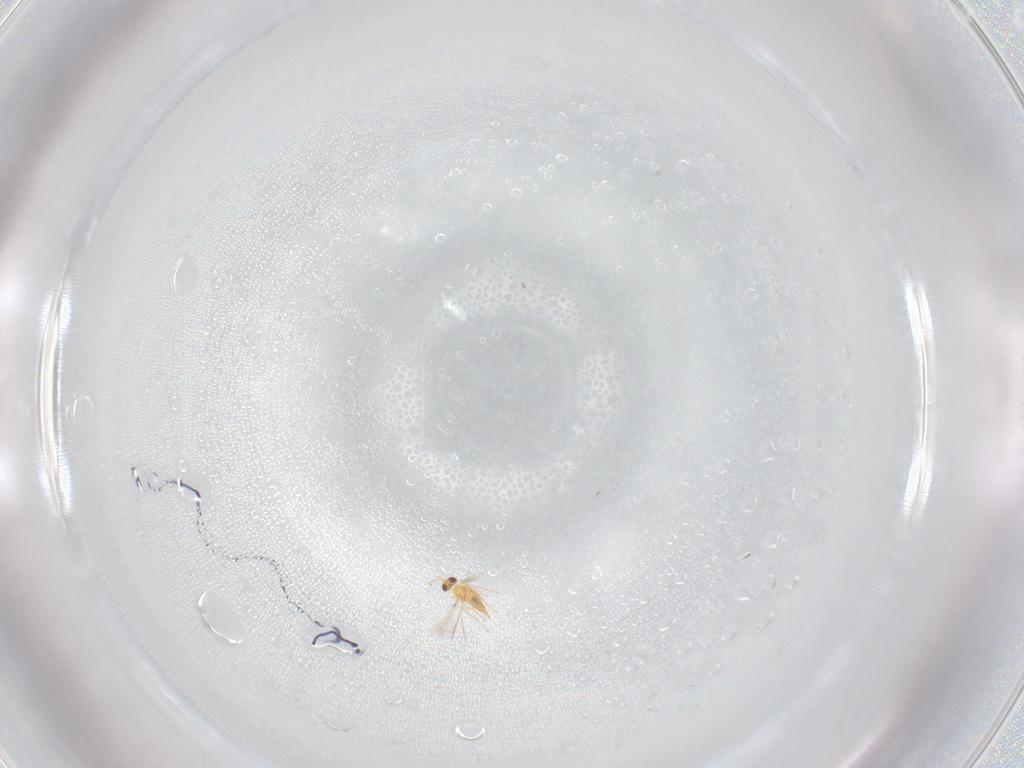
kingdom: Animalia
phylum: Arthropoda
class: Insecta
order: Hymenoptera
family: Mymaridae
